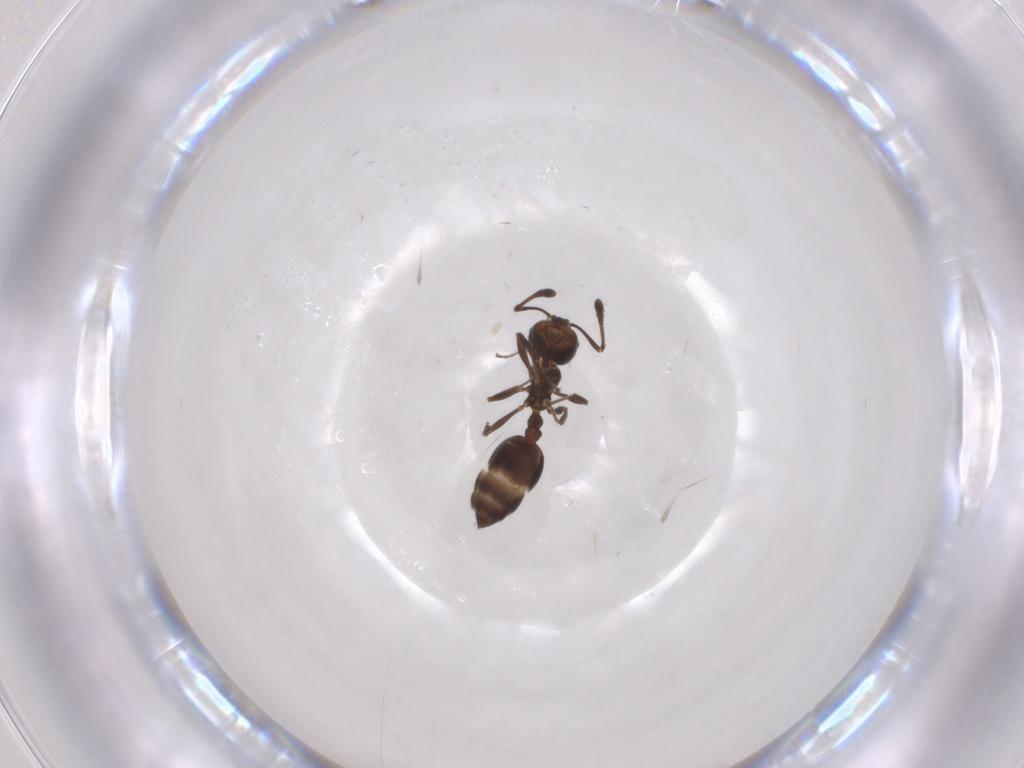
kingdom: Animalia
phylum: Arthropoda
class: Insecta
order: Hymenoptera
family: Formicidae
